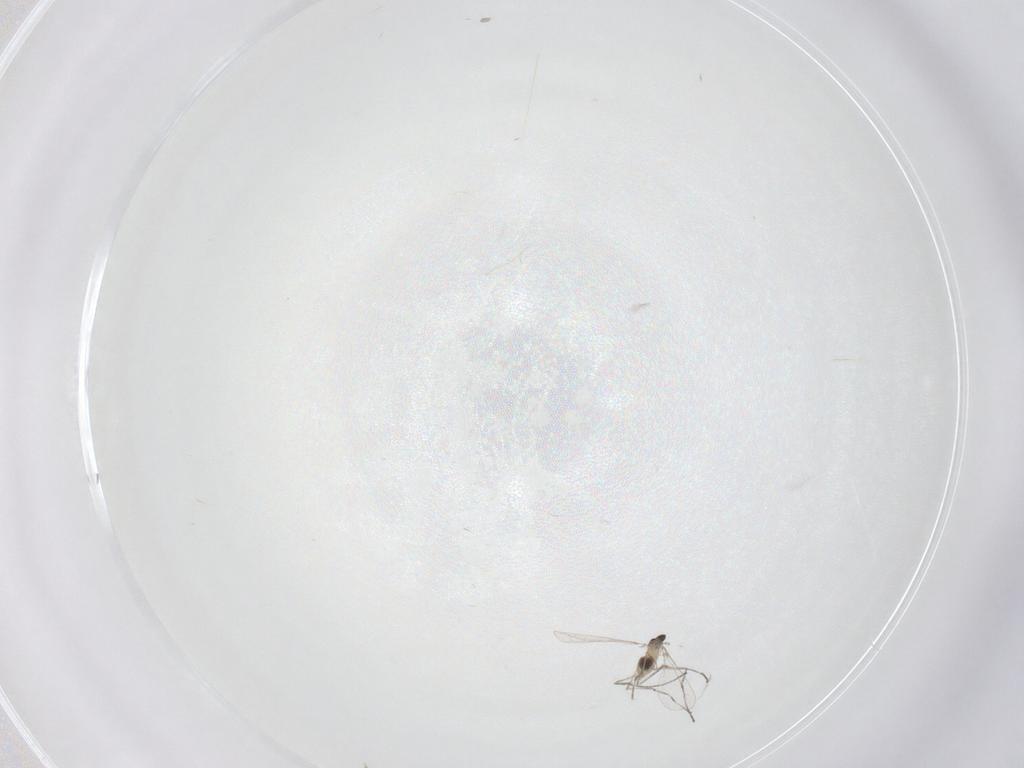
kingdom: Animalia
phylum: Arthropoda
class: Insecta
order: Diptera
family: Cecidomyiidae
